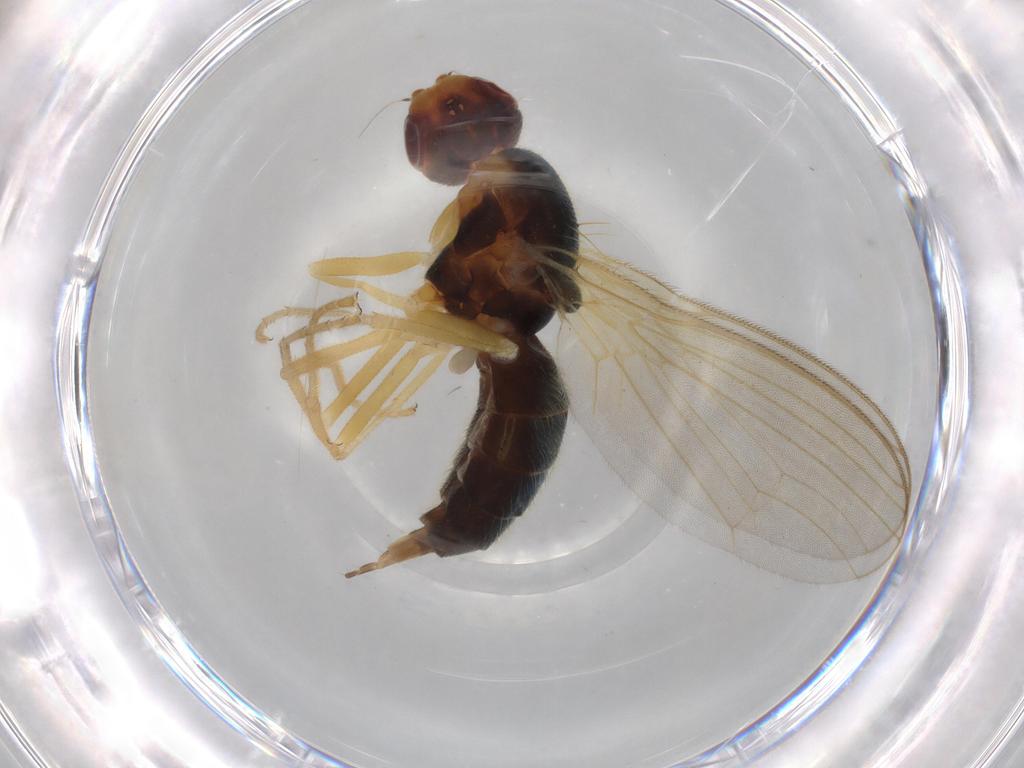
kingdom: Animalia
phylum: Arthropoda
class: Insecta
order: Diptera
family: Psilidae
